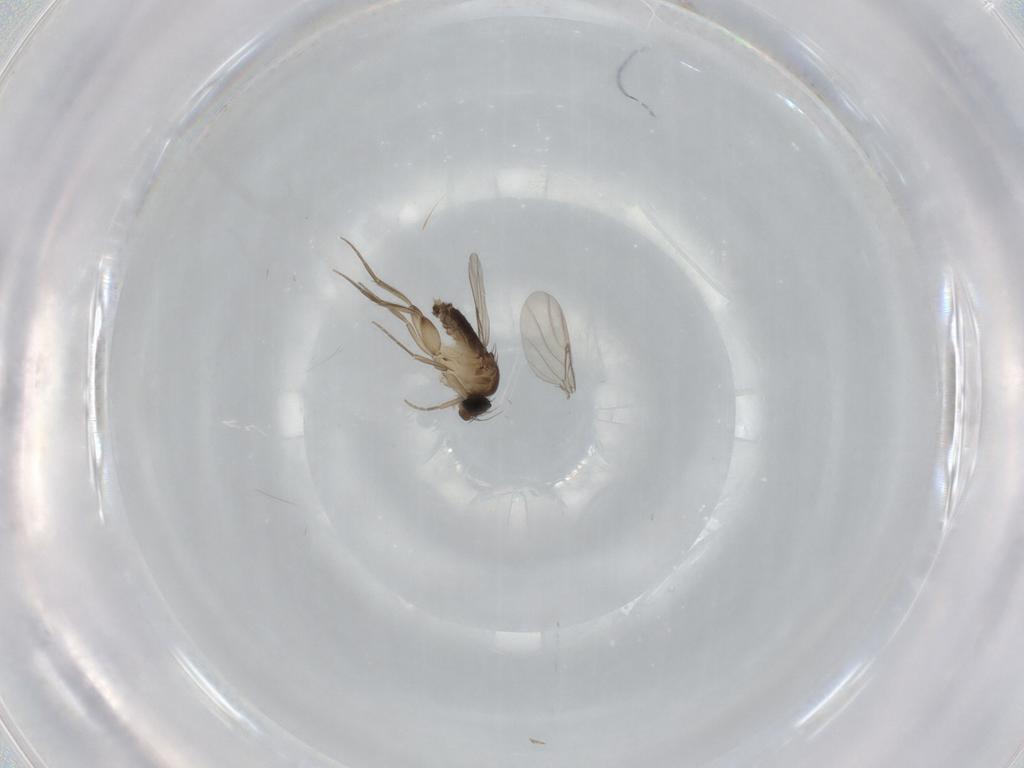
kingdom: Animalia
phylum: Arthropoda
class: Insecta
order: Diptera
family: Phoridae
